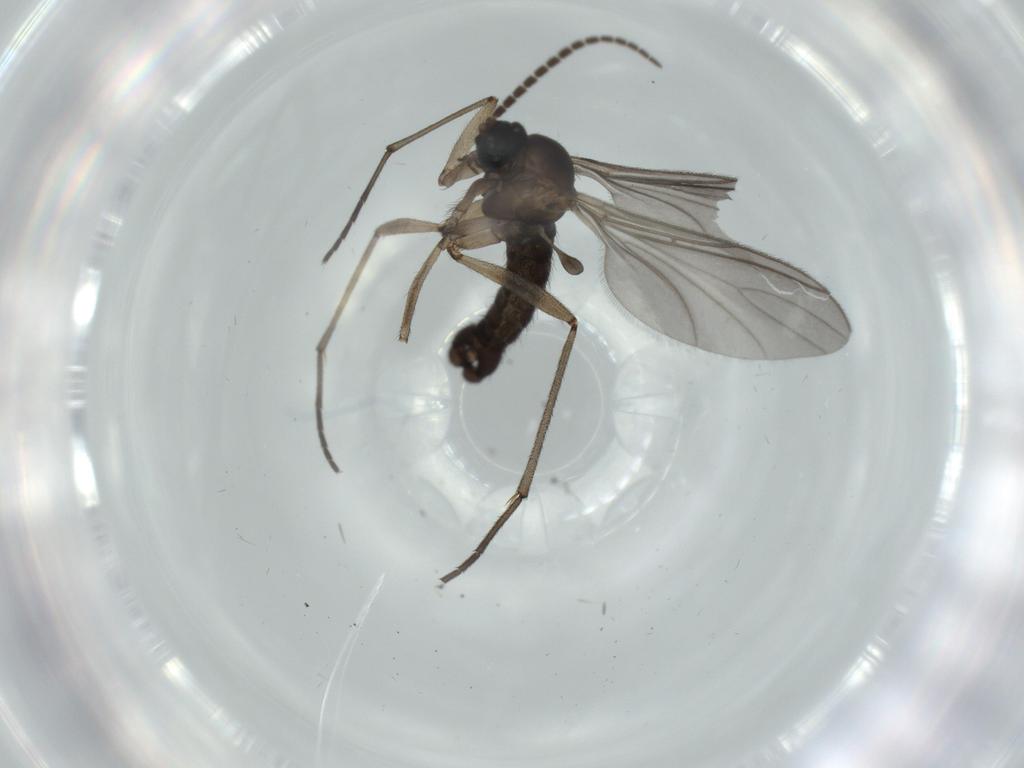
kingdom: Animalia
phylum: Arthropoda
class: Insecta
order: Diptera
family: Sciaridae
